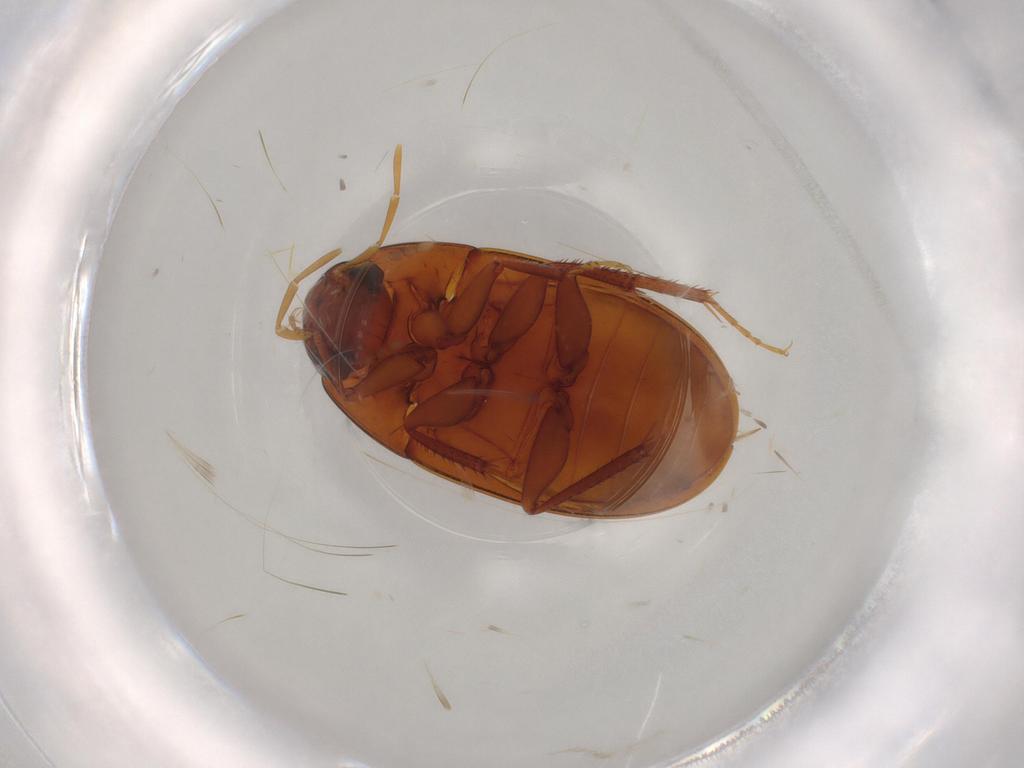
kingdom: Animalia
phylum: Arthropoda
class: Insecta
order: Coleoptera
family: Hydrophilidae
